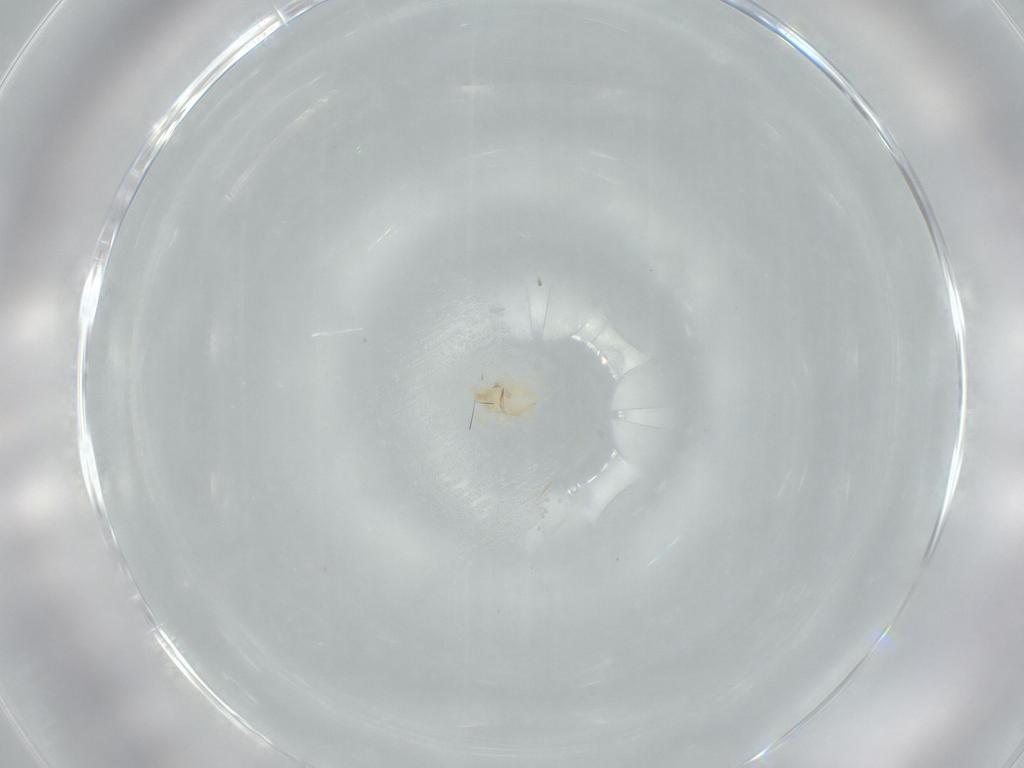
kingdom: Animalia
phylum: Arthropoda
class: Arachnida
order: Trombidiformes
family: Erythraeidae
